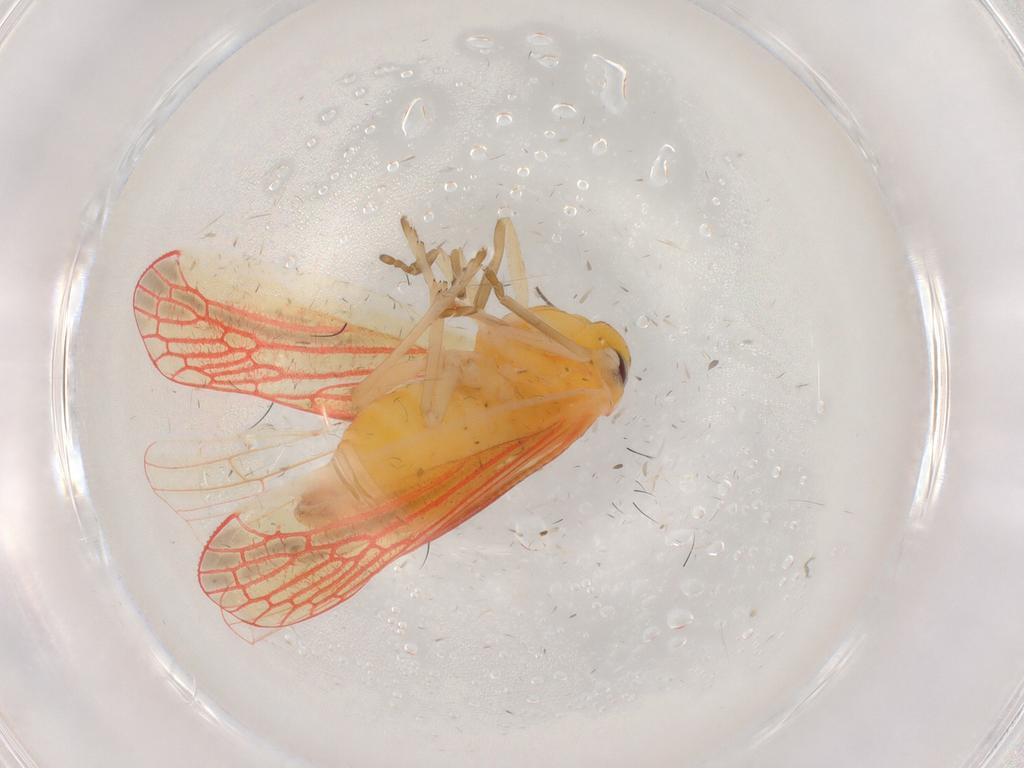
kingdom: Animalia
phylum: Arthropoda
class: Insecta
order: Hemiptera
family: Derbidae
